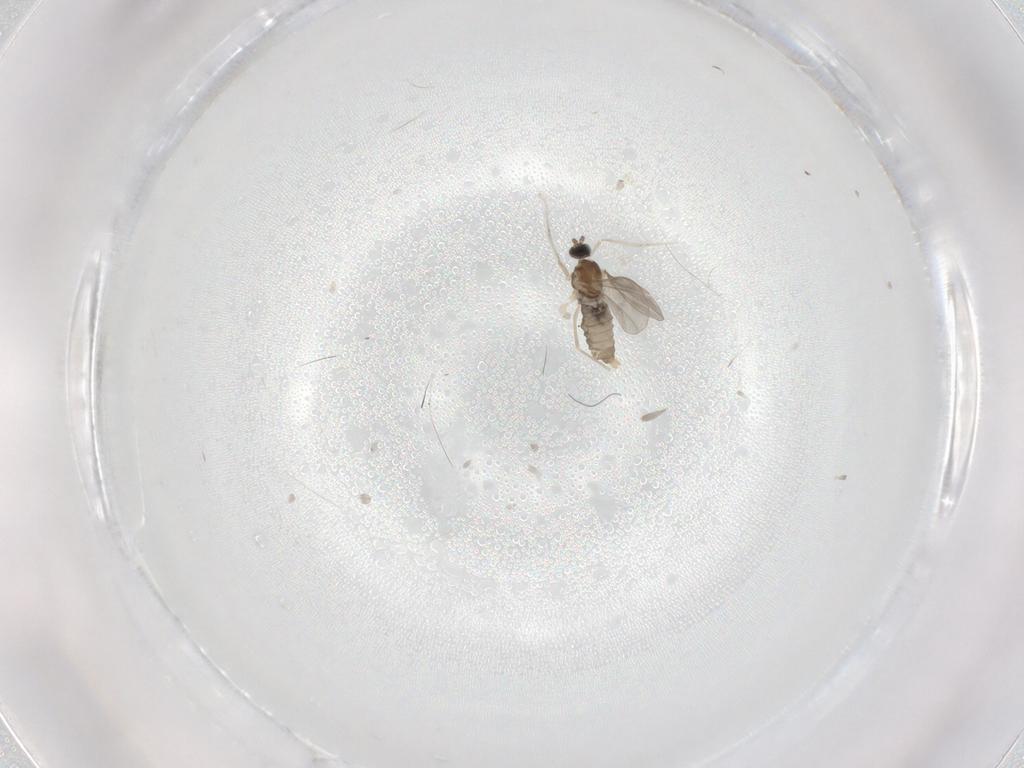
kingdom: Animalia
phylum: Arthropoda
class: Insecta
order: Diptera
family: Cecidomyiidae
